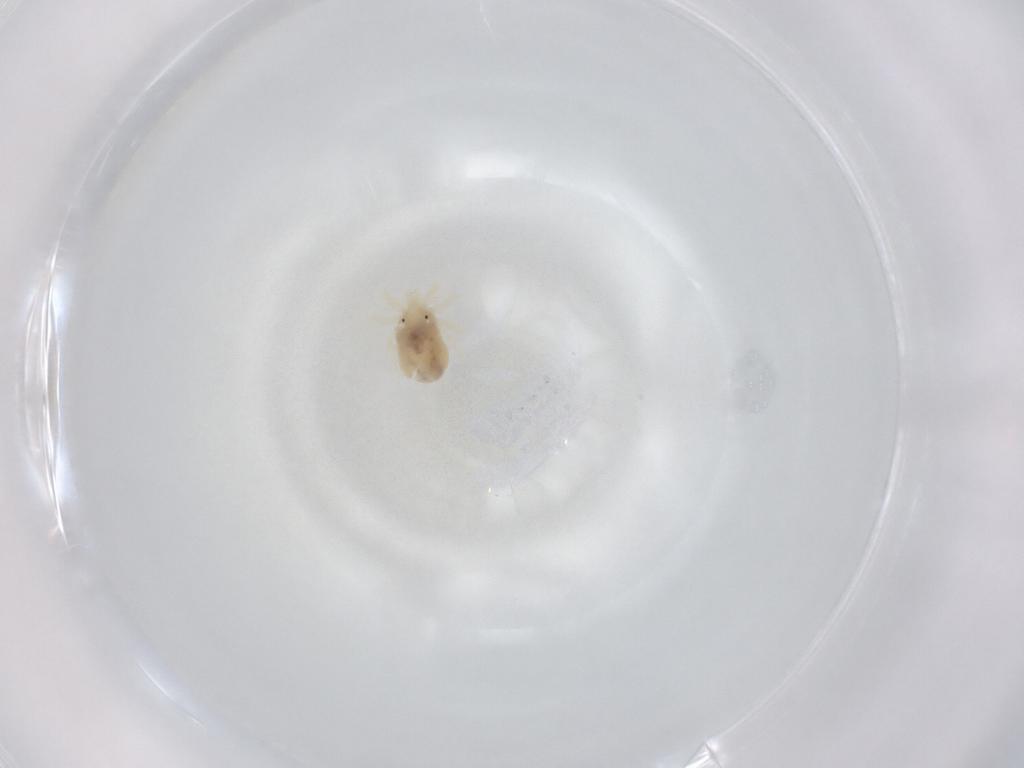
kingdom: Animalia
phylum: Arthropoda
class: Arachnida
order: Trombidiformes
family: Anystidae
